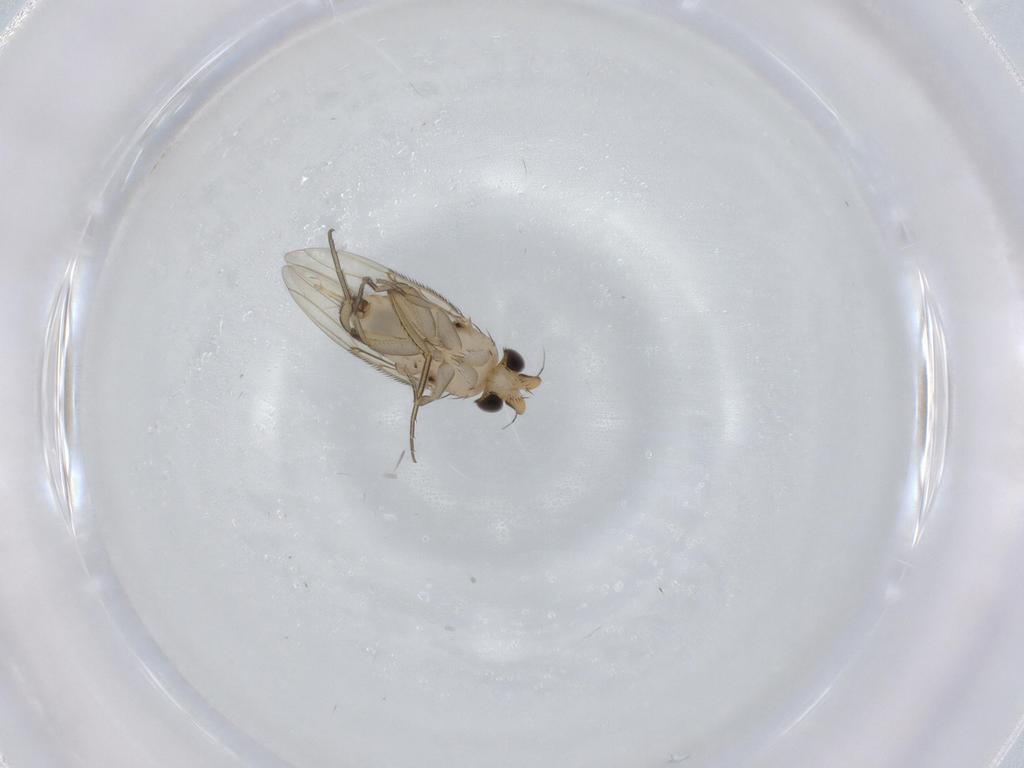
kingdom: Animalia
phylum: Arthropoda
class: Insecta
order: Diptera
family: Phoridae
